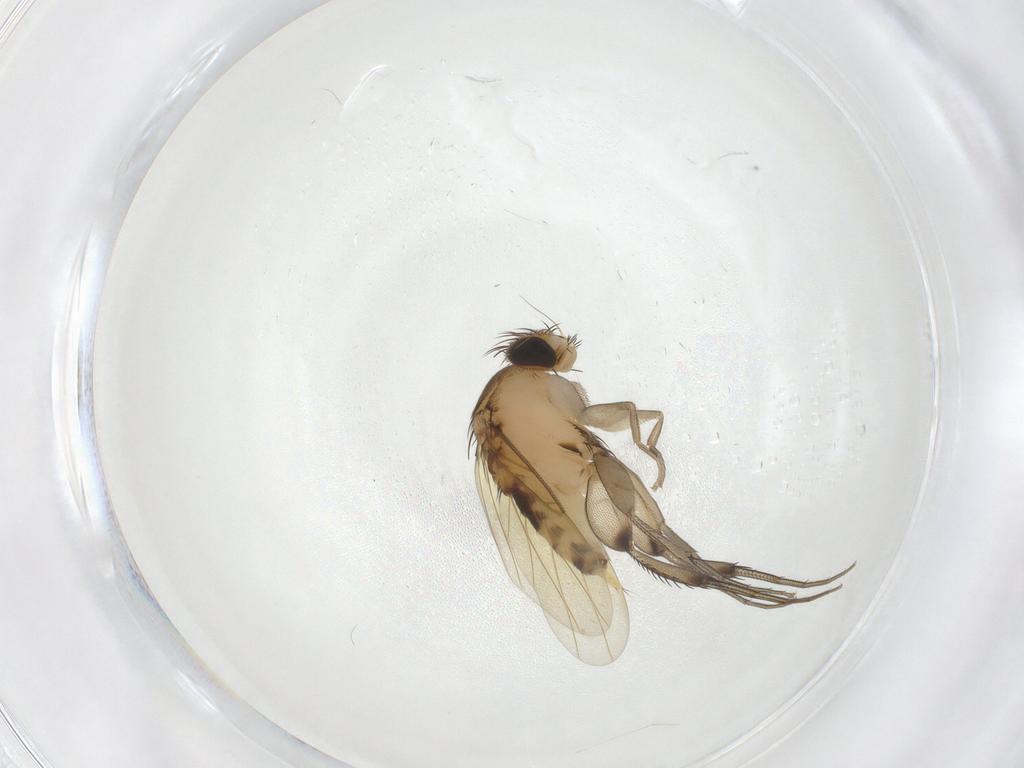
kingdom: Animalia
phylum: Arthropoda
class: Insecta
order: Diptera
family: Phoridae
